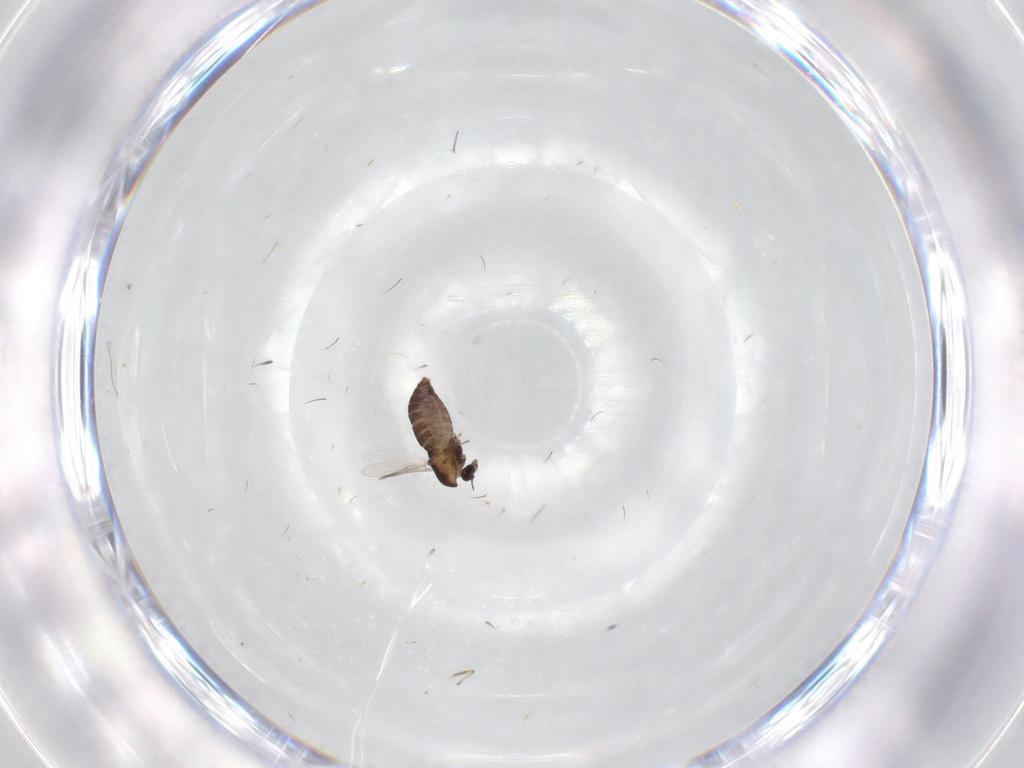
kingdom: Animalia
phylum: Arthropoda
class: Insecta
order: Diptera
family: Chironomidae
